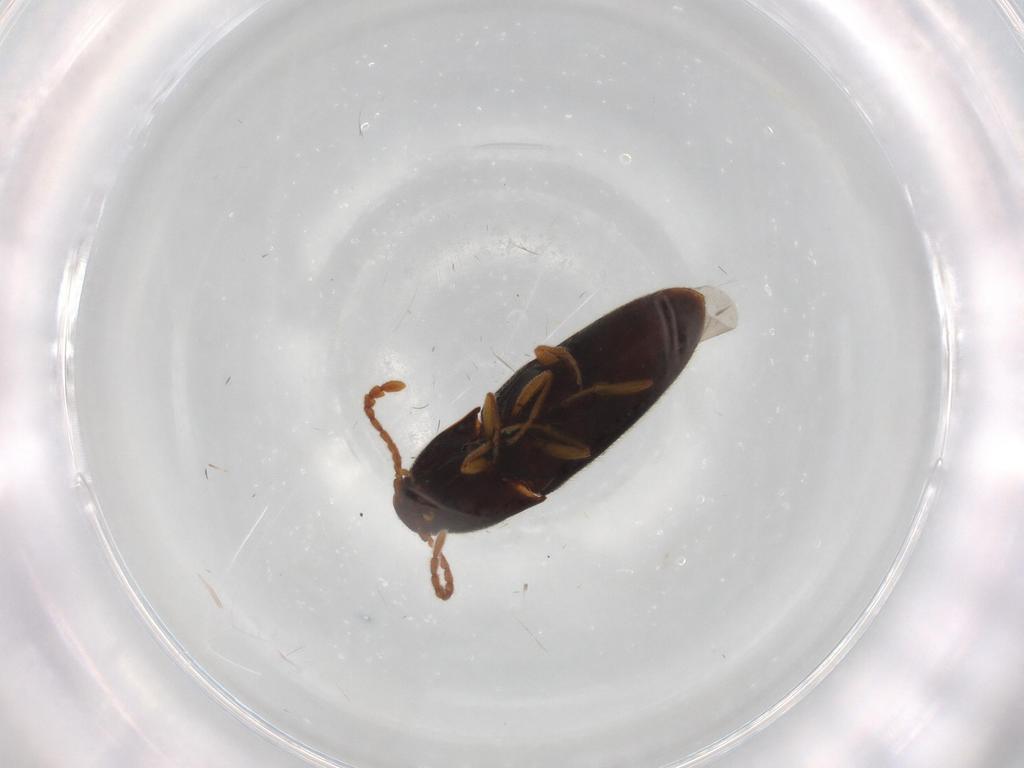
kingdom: Animalia
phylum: Arthropoda
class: Insecta
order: Coleoptera
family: Elateridae
